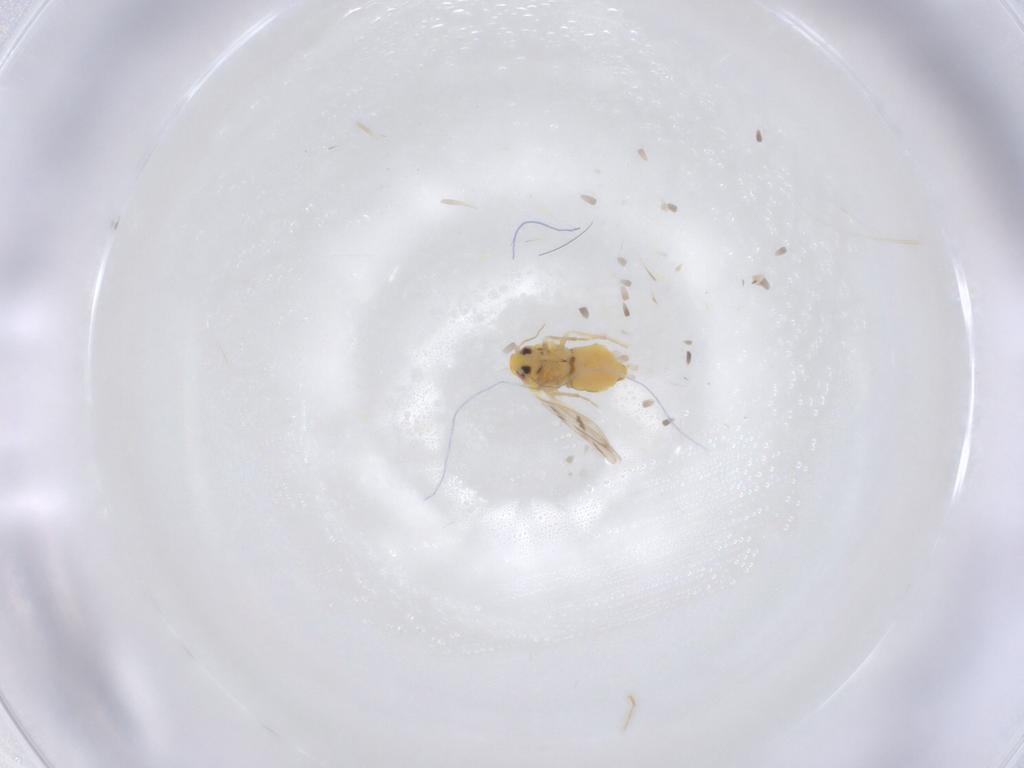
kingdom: Animalia
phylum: Arthropoda
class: Insecta
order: Hemiptera
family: Aleyrodidae
